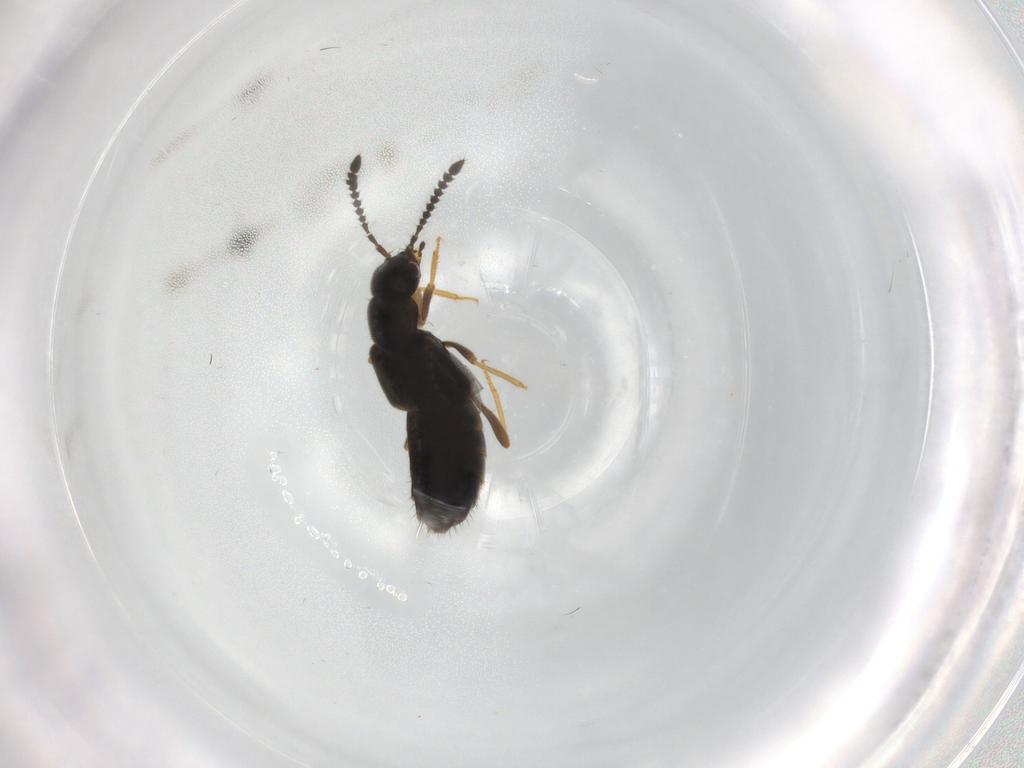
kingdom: Animalia
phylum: Arthropoda
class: Insecta
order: Coleoptera
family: Staphylinidae
